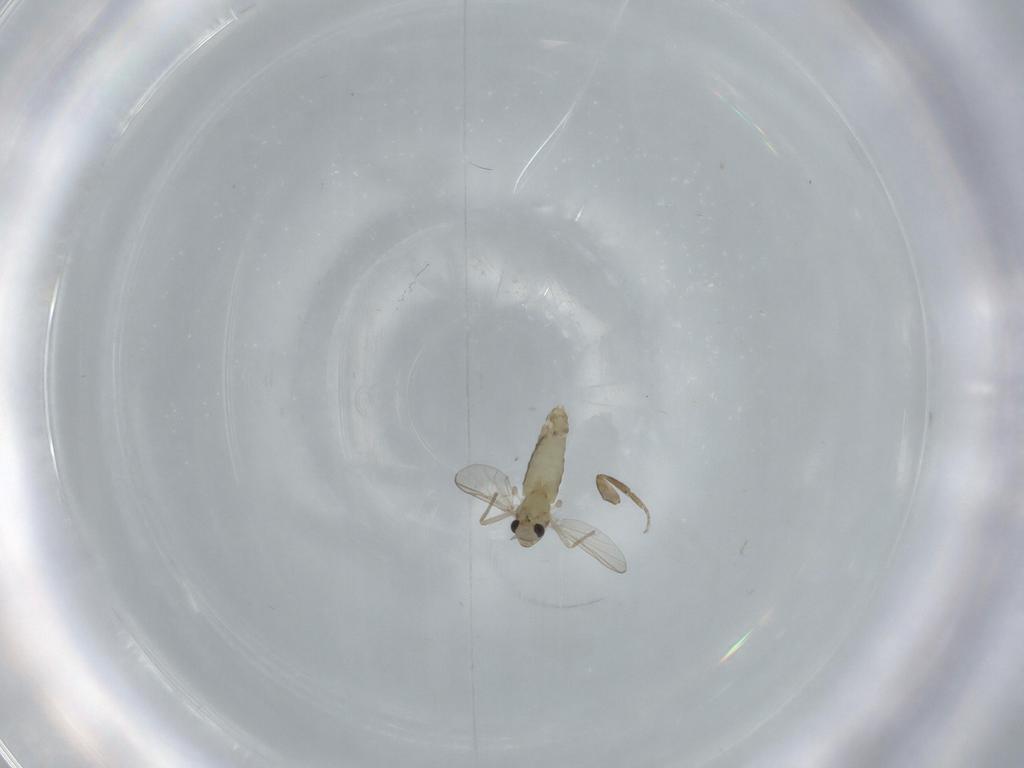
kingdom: Animalia
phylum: Arthropoda
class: Insecta
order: Diptera
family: Chironomidae
